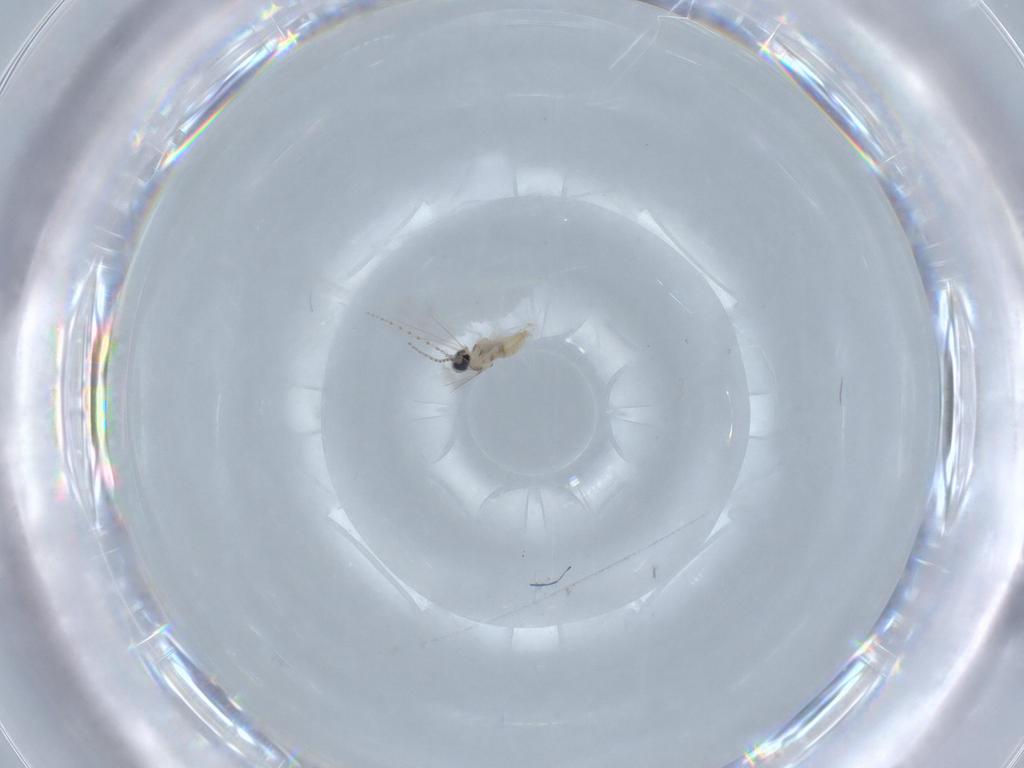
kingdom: Animalia
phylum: Arthropoda
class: Insecta
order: Diptera
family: Cecidomyiidae
